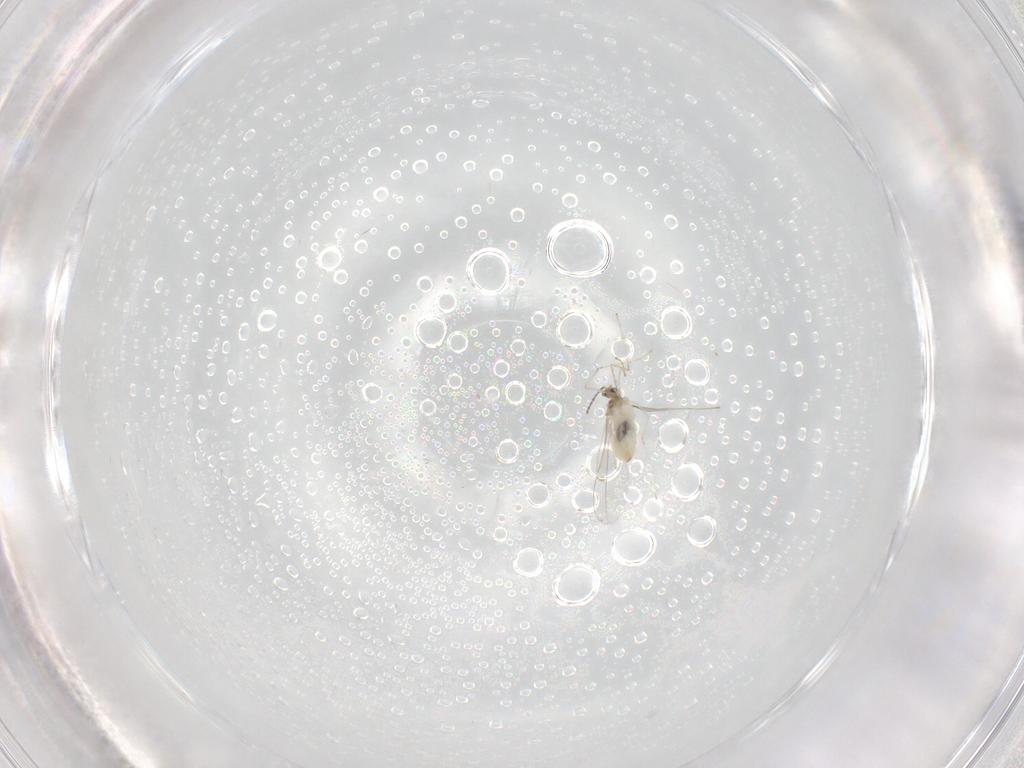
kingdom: Animalia
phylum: Arthropoda
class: Insecta
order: Diptera
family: Cecidomyiidae
